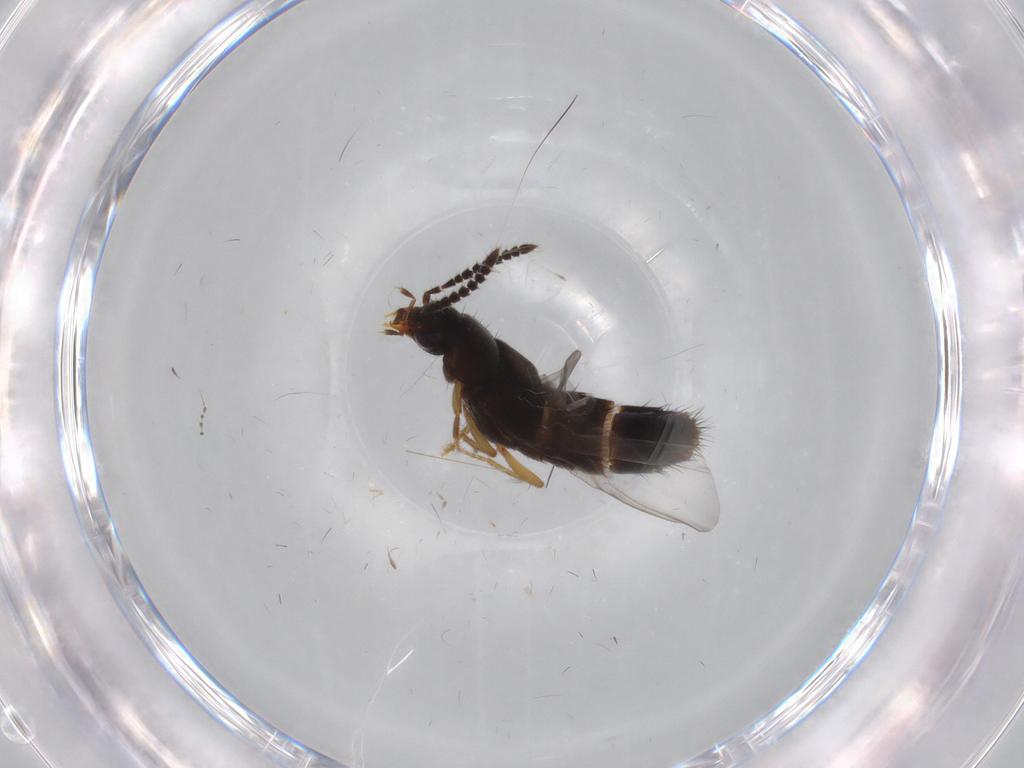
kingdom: Animalia
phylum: Arthropoda
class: Insecta
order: Coleoptera
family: Staphylinidae
